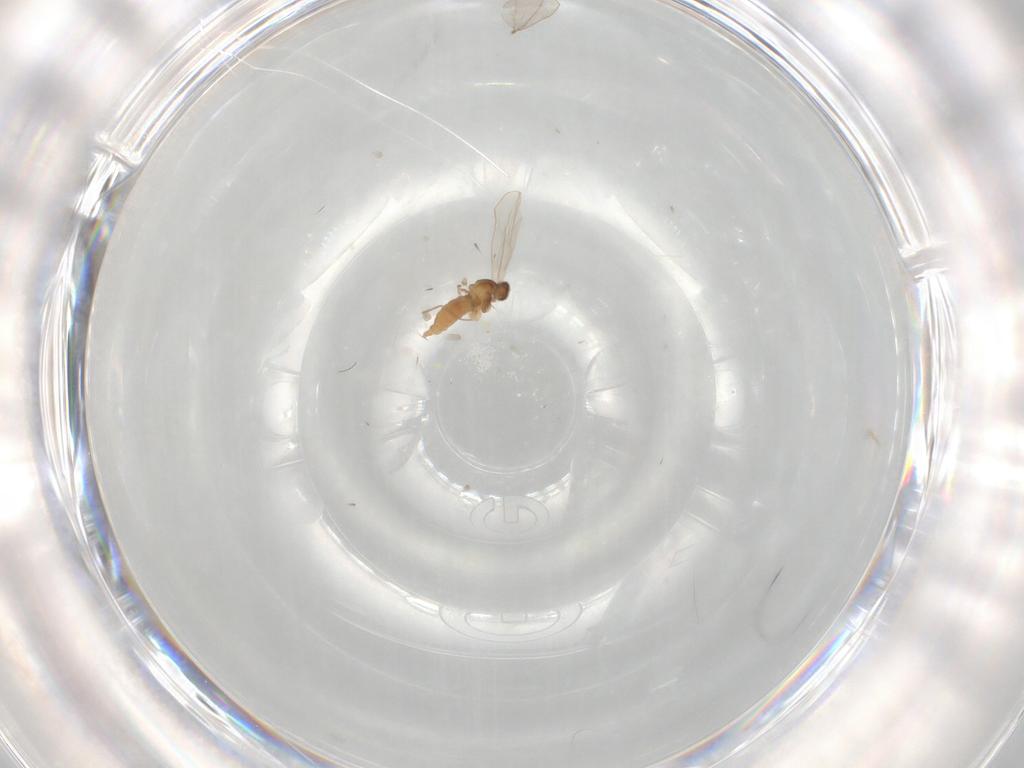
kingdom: Animalia
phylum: Arthropoda
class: Insecta
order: Diptera
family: Cecidomyiidae
